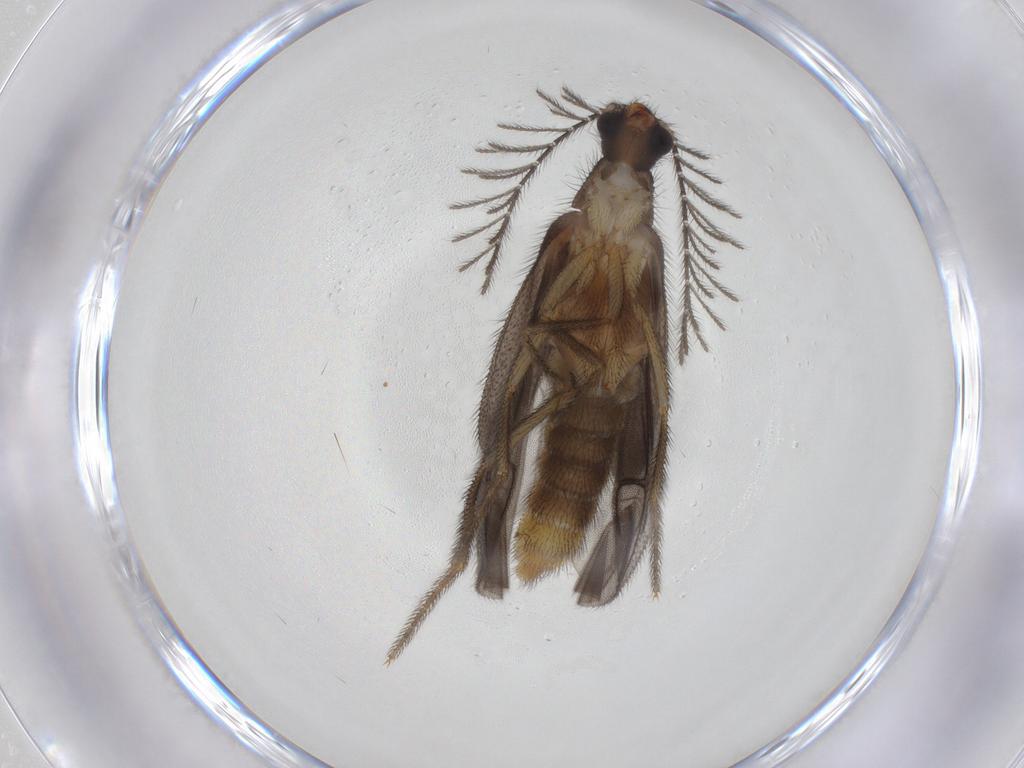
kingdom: Animalia
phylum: Arthropoda
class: Insecta
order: Coleoptera
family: Phengodidae
